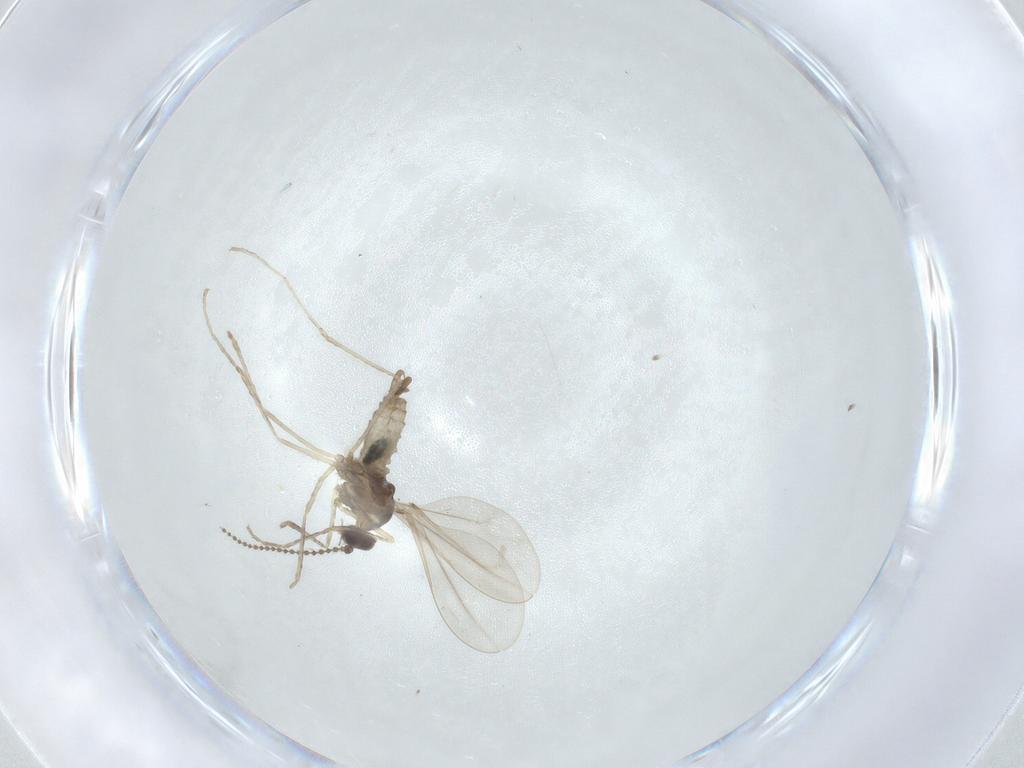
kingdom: Animalia
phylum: Arthropoda
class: Insecta
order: Diptera
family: Cecidomyiidae
